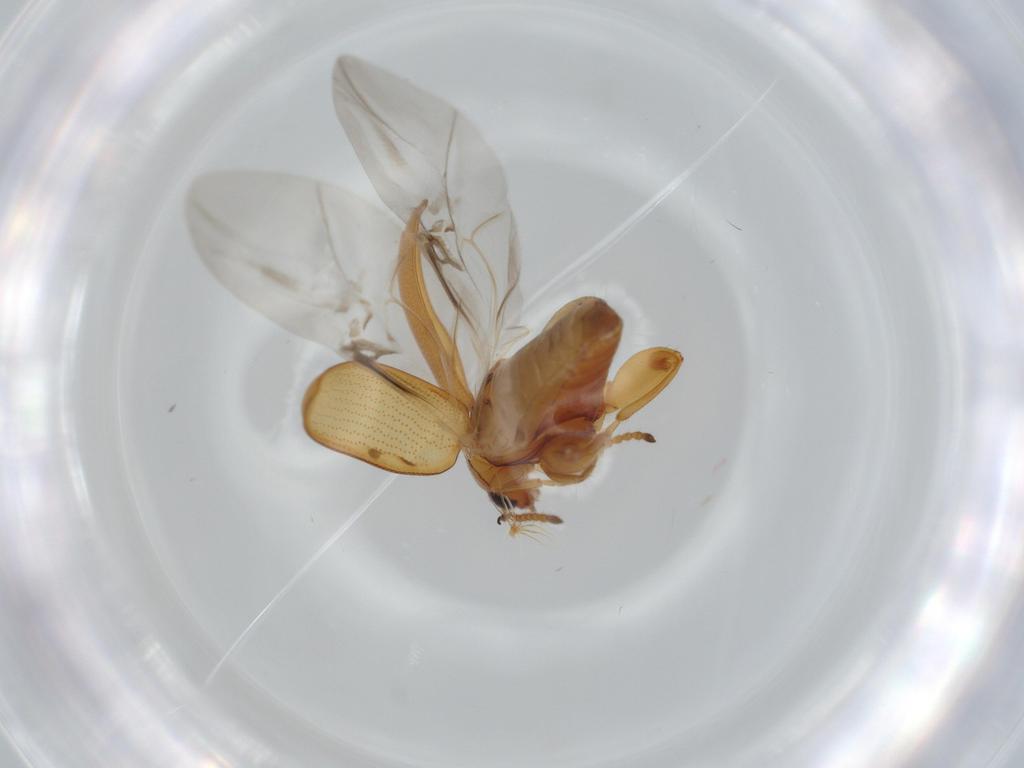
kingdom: Animalia
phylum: Arthropoda
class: Insecta
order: Coleoptera
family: Chrysomelidae
